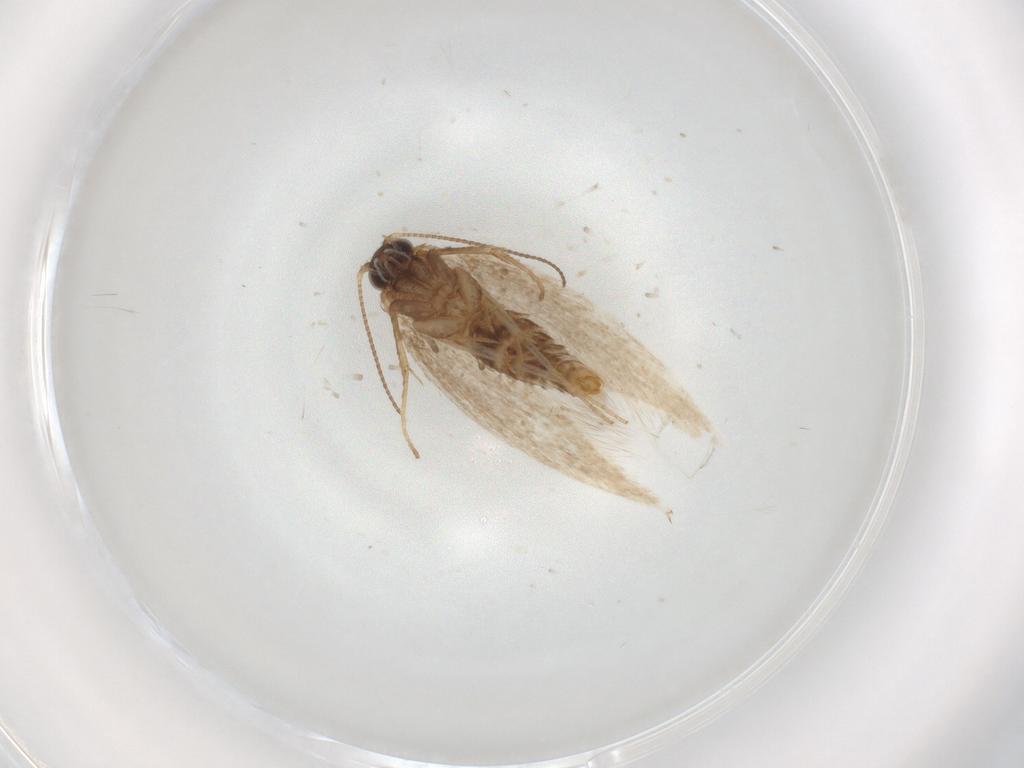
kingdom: Animalia
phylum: Arthropoda
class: Insecta
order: Lepidoptera
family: Nepticulidae
